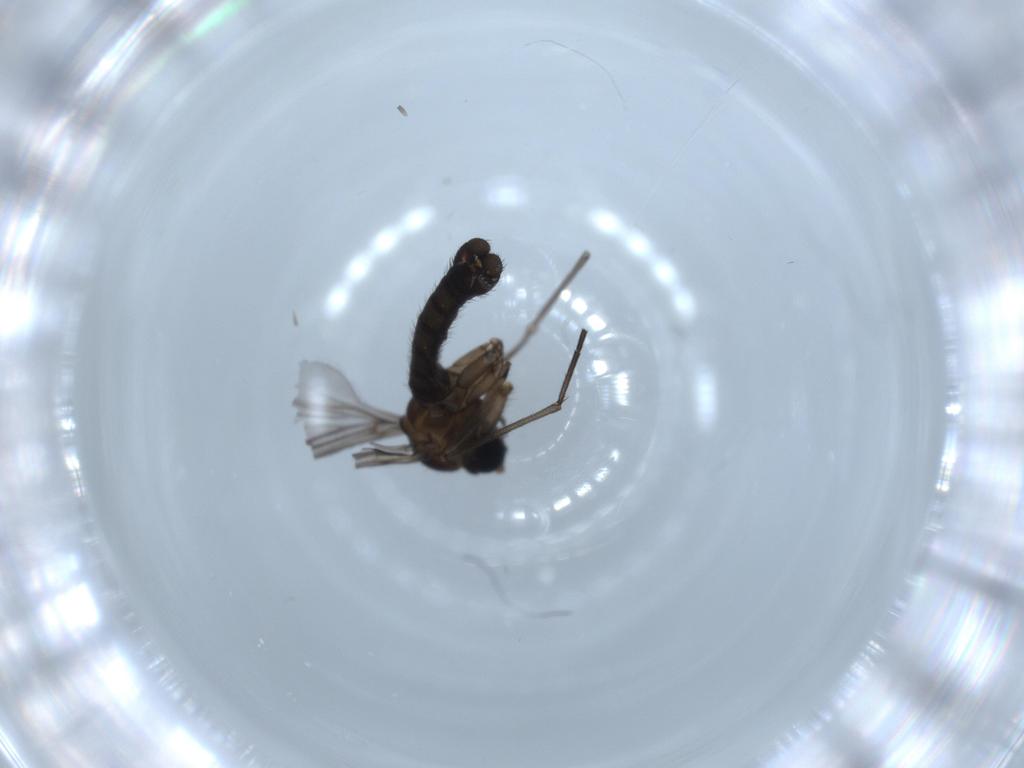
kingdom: Animalia
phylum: Arthropoda
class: Insecta
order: Diptera
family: Sciaridae
